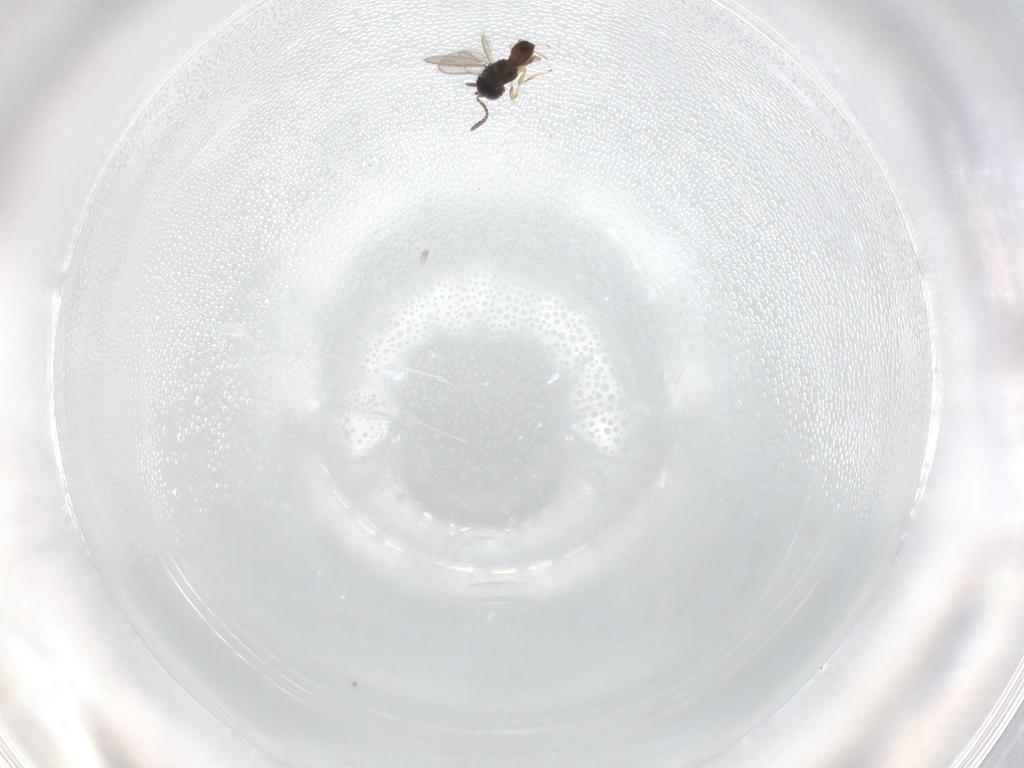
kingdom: Animalia
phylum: Arthropoda
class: Insecta
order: Hymenoptera
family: Scelionidae
